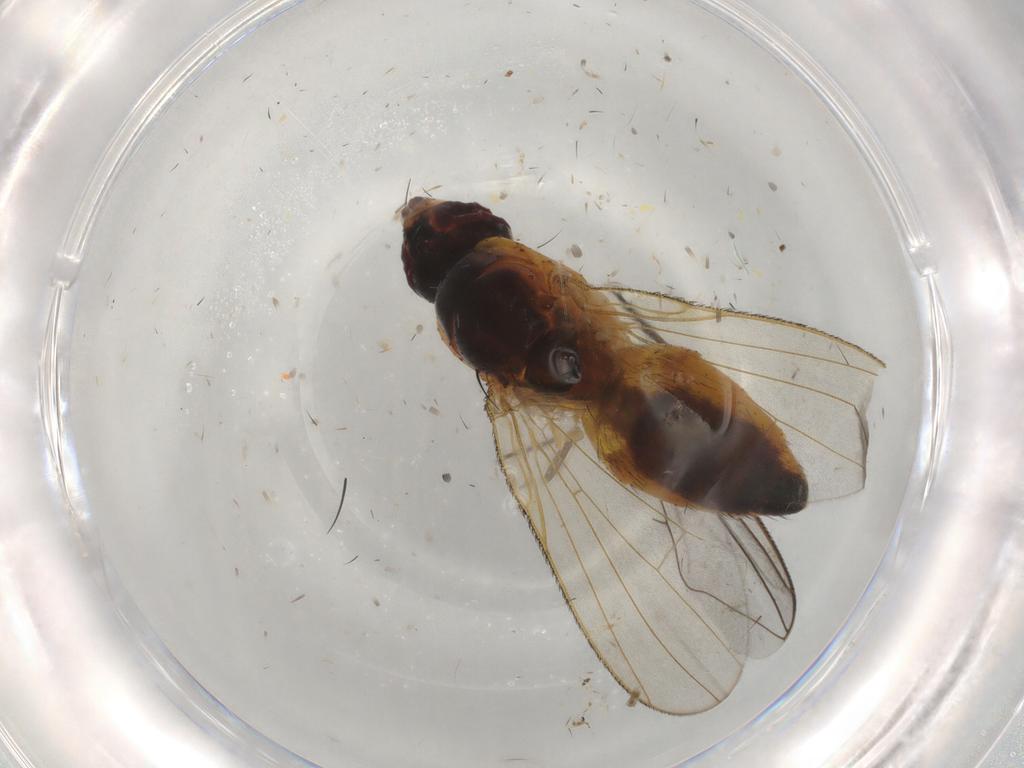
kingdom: Animalia
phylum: Arthropoda
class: Insecta
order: Diptera
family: Muscidae
